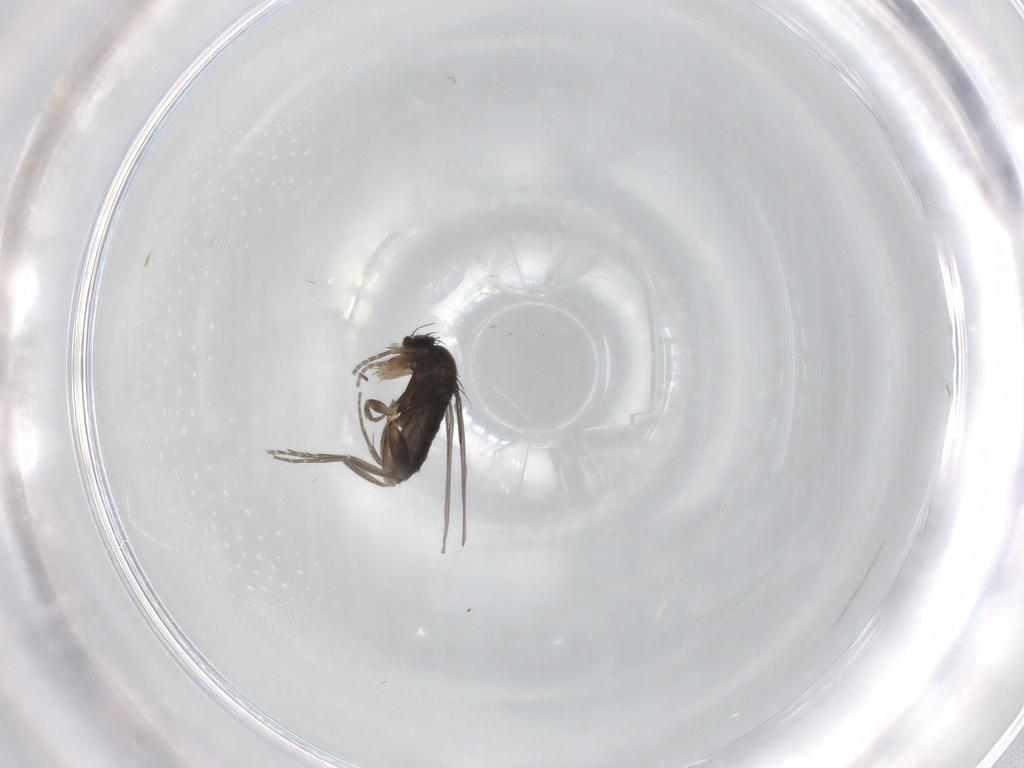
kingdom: Animalia
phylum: Arthropoda
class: Insecta
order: Diptera
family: Phoridae
